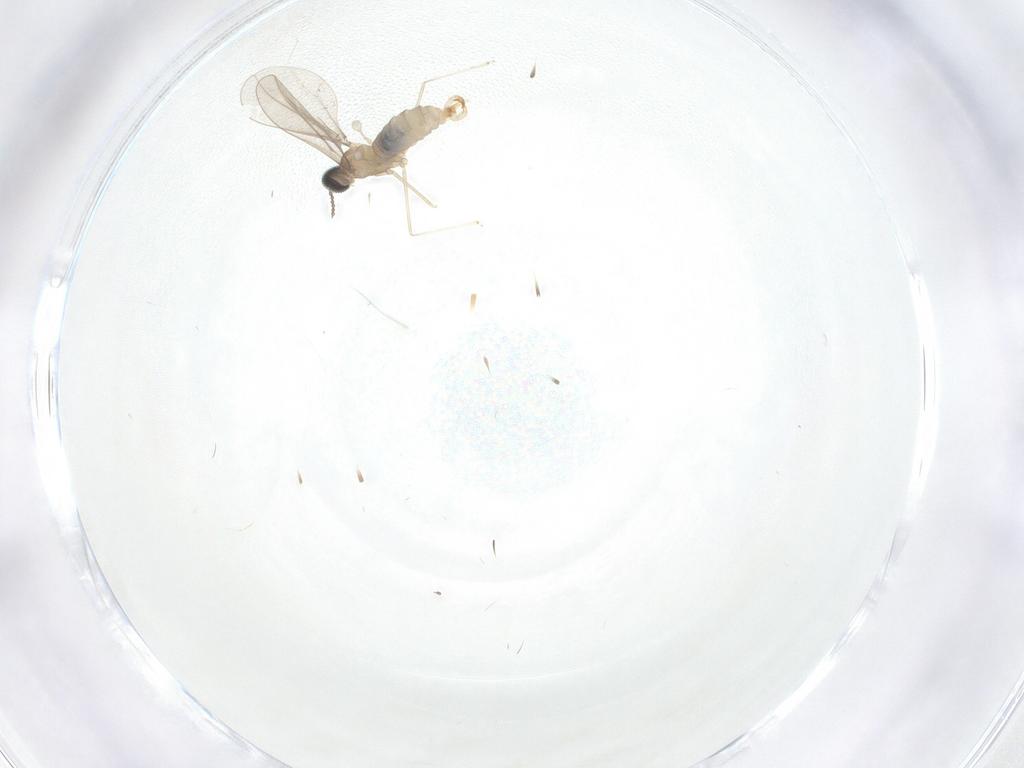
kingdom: Animalia
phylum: Arthropoda
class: Insecta
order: Diptera
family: Cecidomyiidae
